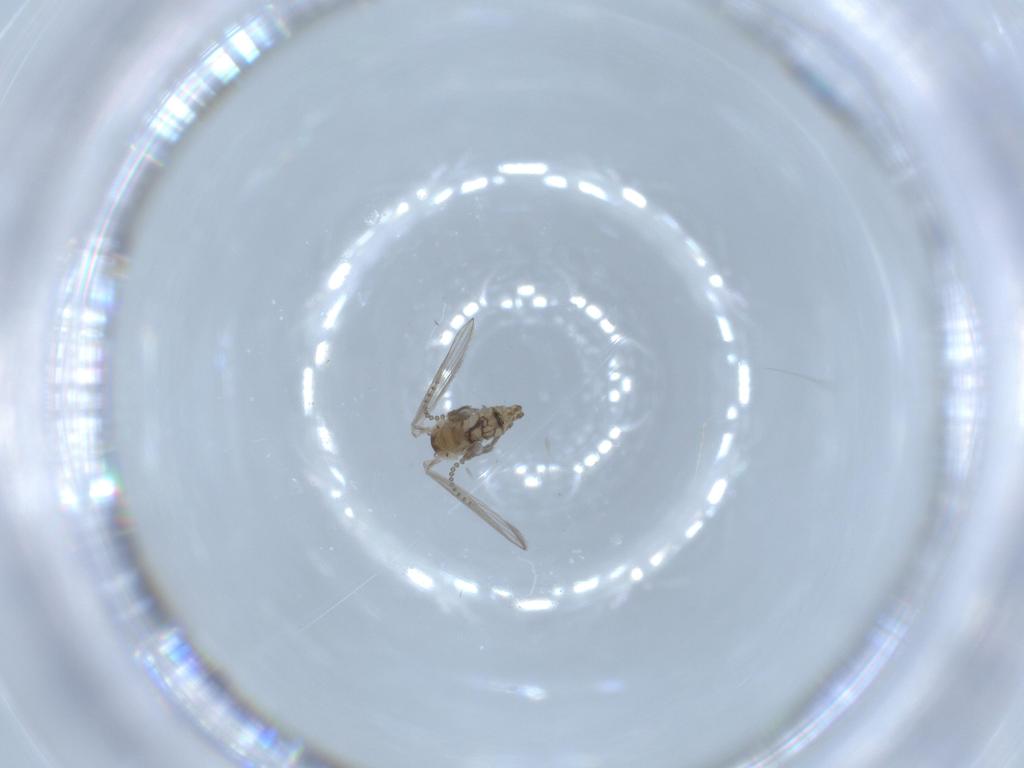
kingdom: Animalia
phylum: Arthropoda
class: Insecta
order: Diptera
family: Psychodidae
